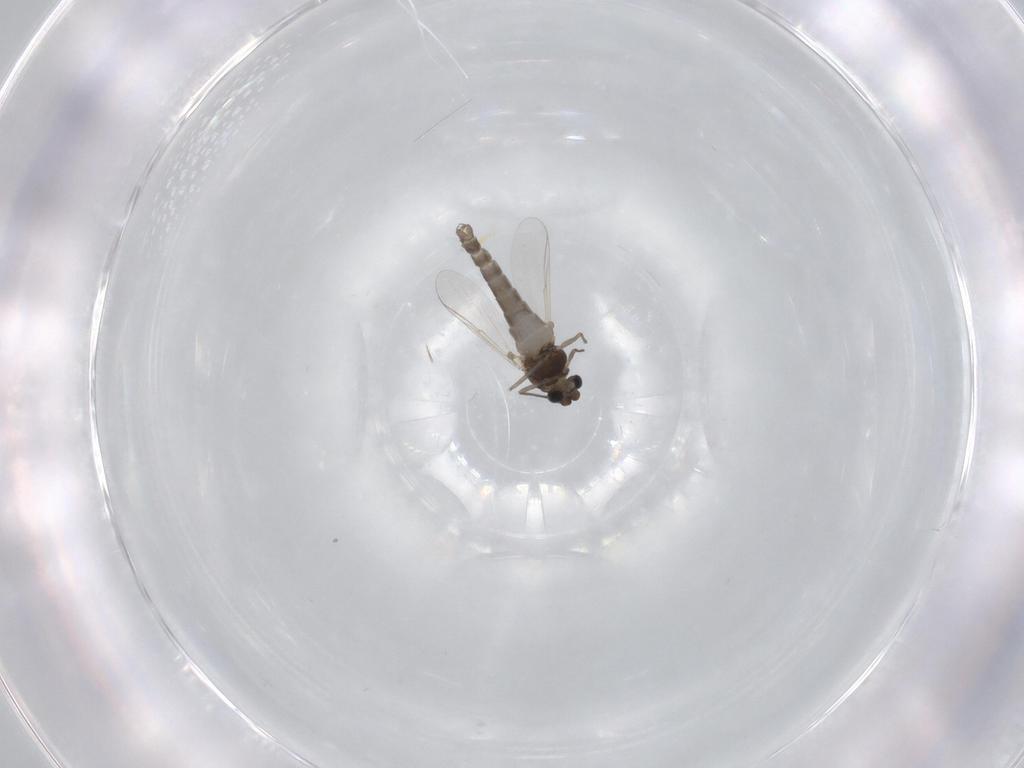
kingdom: Animalia
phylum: Arthropoda
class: Insecta
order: Diptera
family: Chironomidae
